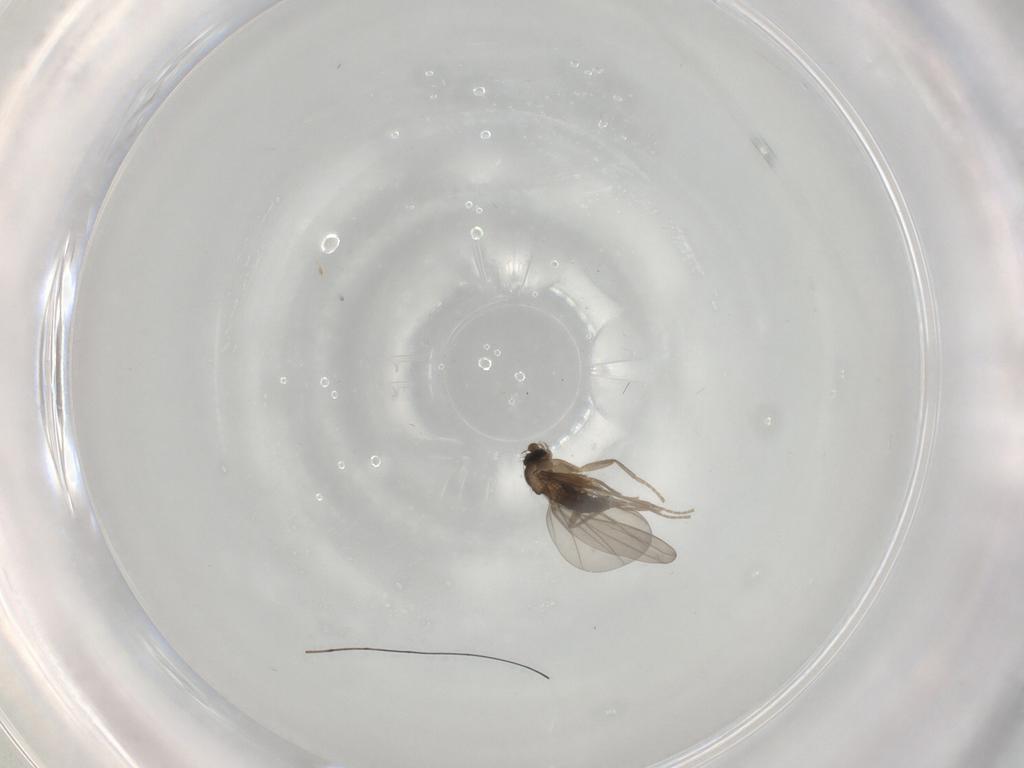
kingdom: Animalia
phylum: Arthropoda
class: Insecta
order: Diptera
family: Phoridae
